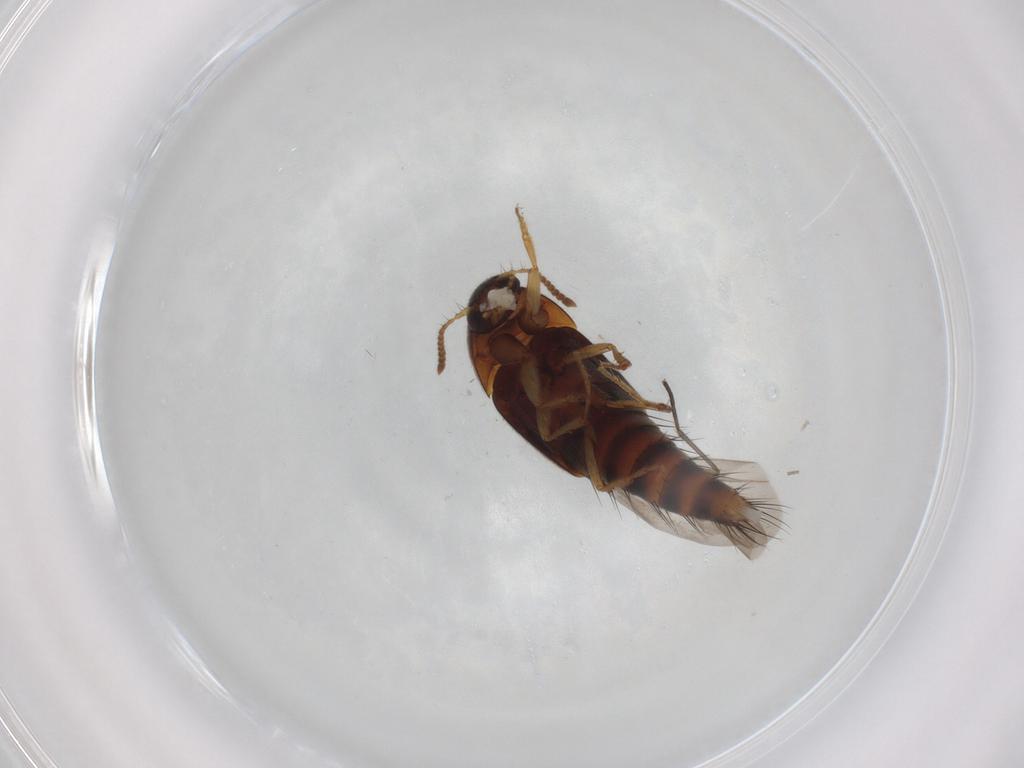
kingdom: Animalia
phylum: Arthropoda
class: Insecta
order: Coleoptera
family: Staphylinidae
